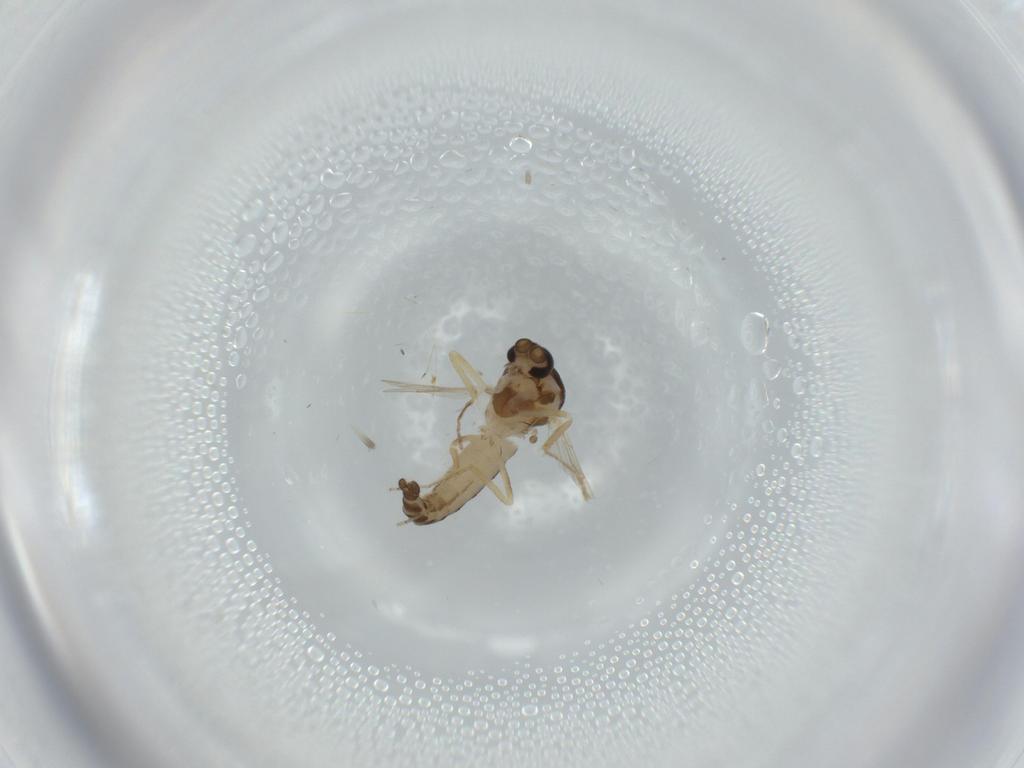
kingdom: Animalia
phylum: Arthropoda
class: Insecta
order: Diptera
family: Ceratopogonidae
